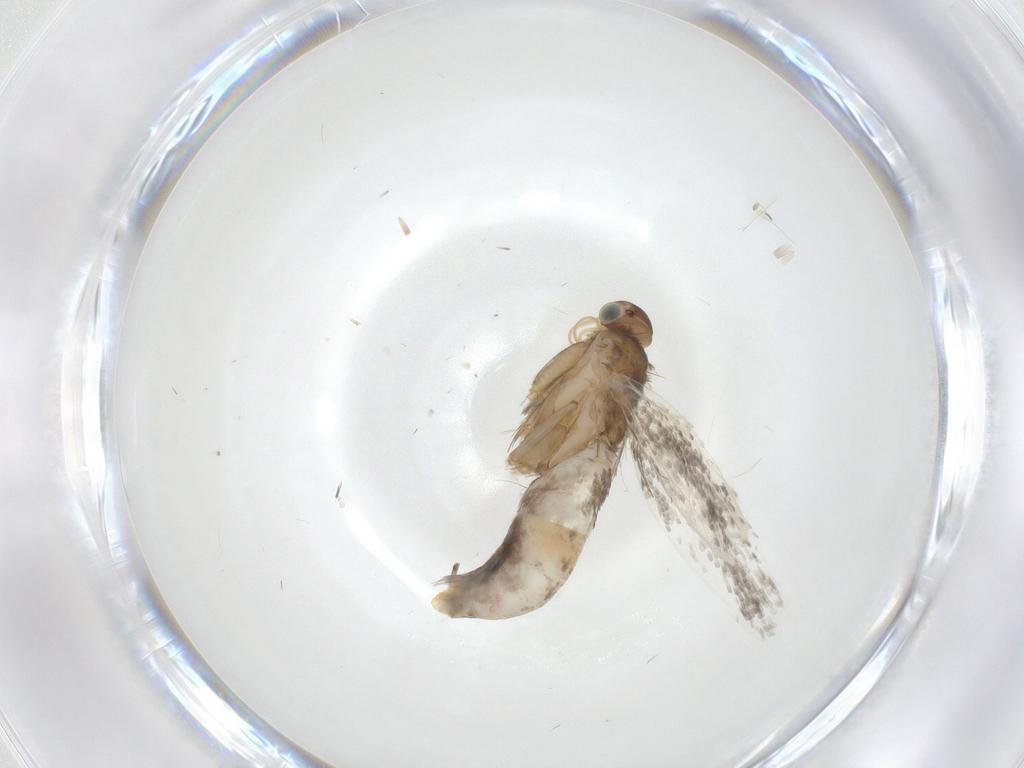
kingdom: Animalia
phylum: Arthropoda
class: Insecta
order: Lepidoptera
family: Glyphipterigidae
